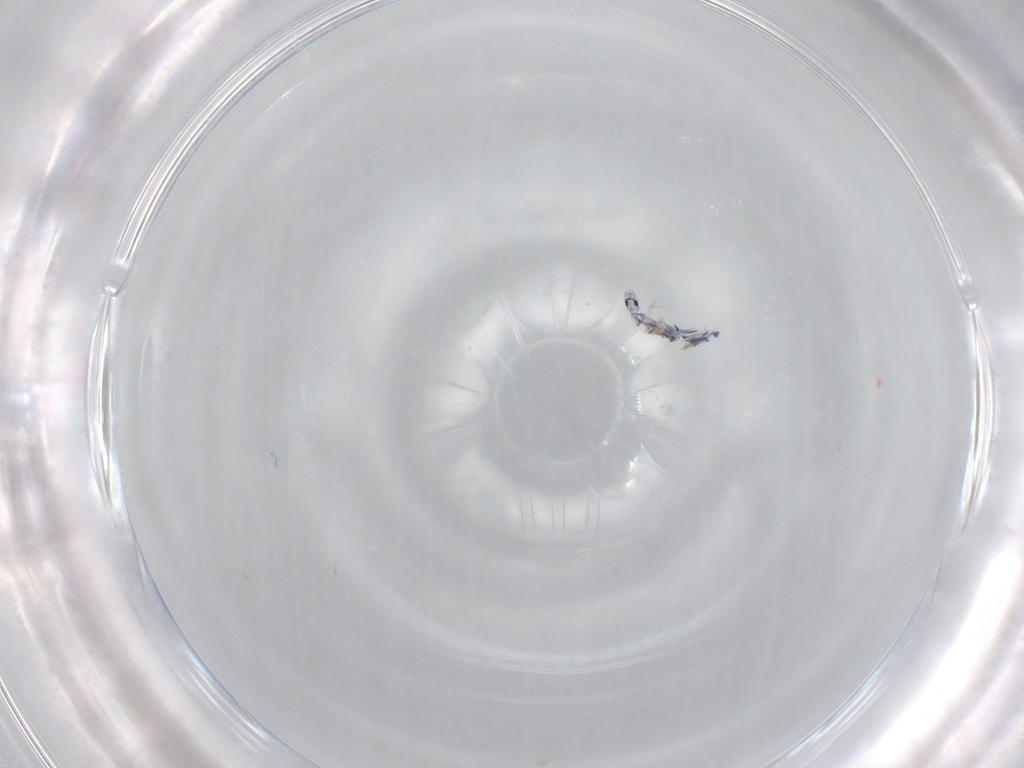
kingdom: Animalia
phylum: Arthropoda
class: Collembola
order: Entomobryomorpha
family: Entomobryidae
